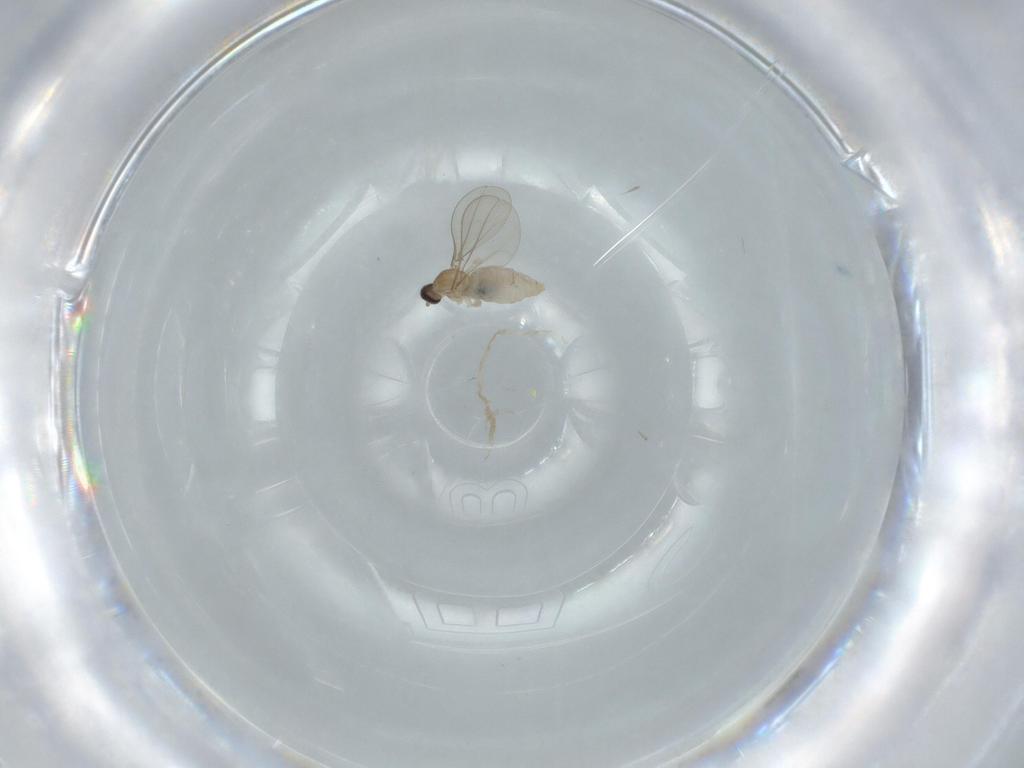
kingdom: Animalia
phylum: Arthropoda
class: Insecta
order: Diptera
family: Cecidomyiidae
